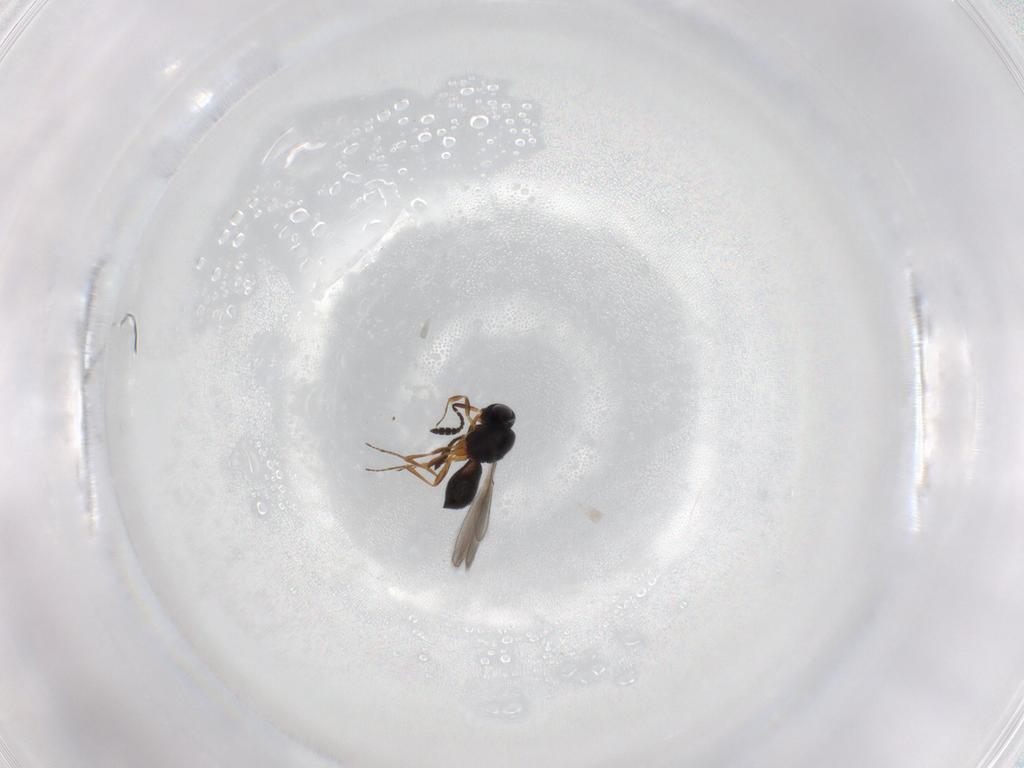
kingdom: Animalia
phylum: Arthropoda
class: Insecta
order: Hymenoptera
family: Scelionidae
